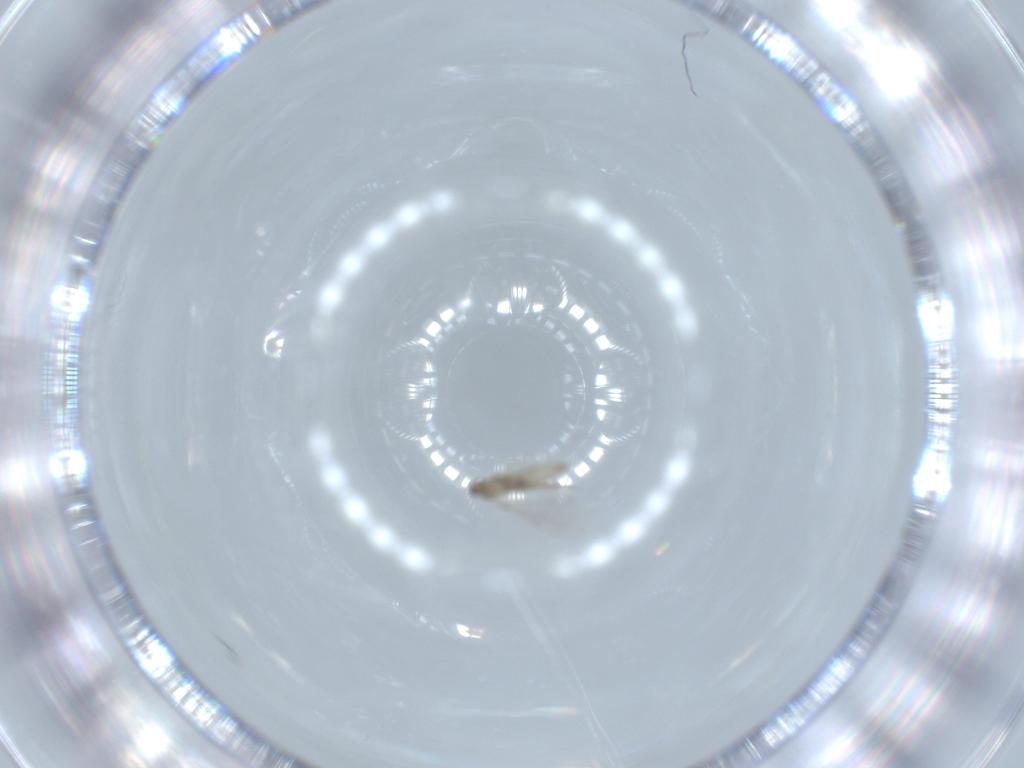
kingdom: Animalia
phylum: Arthropoda
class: Insecta
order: Diptera
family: Cecidomyiidae
